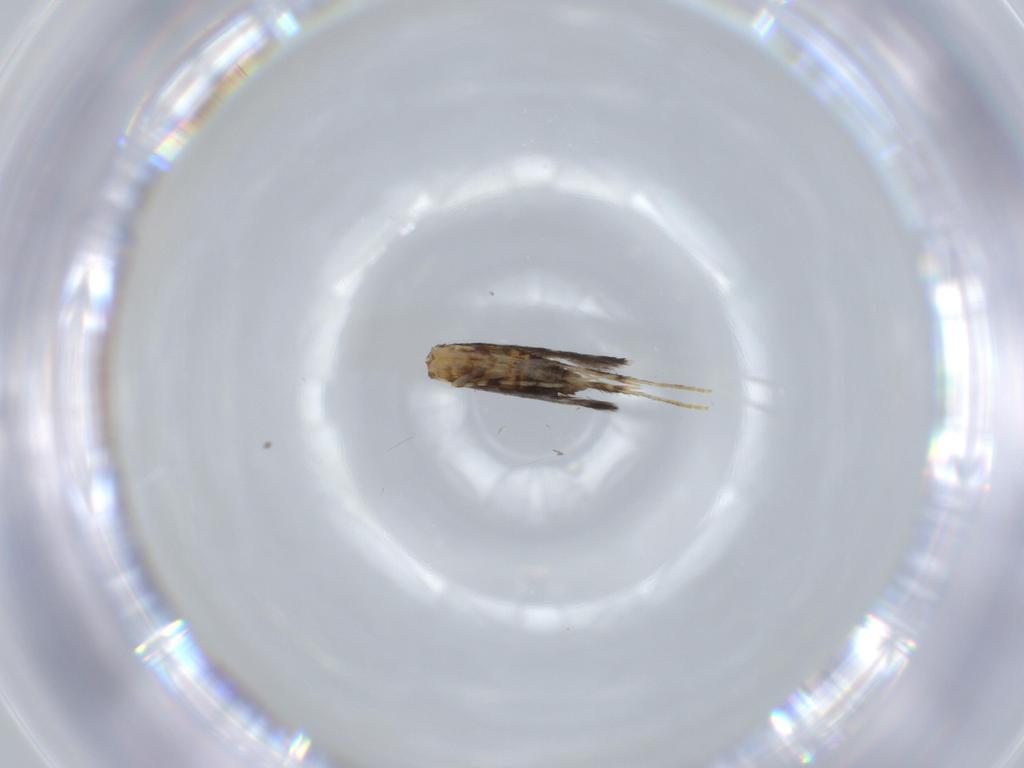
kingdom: Animalia
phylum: Arthropoda
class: Insecta
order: Lepidoptera
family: Gracillariidae
